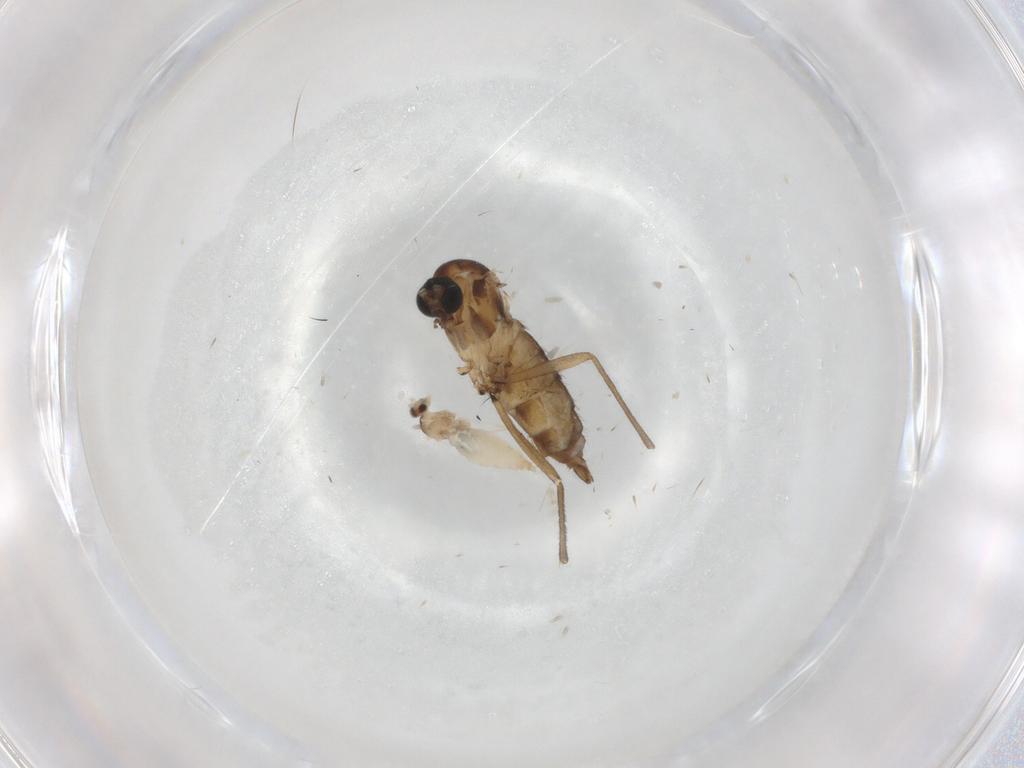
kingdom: Animalia
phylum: Arthropoda
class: Insecta
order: Diptera
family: Sciaridae
